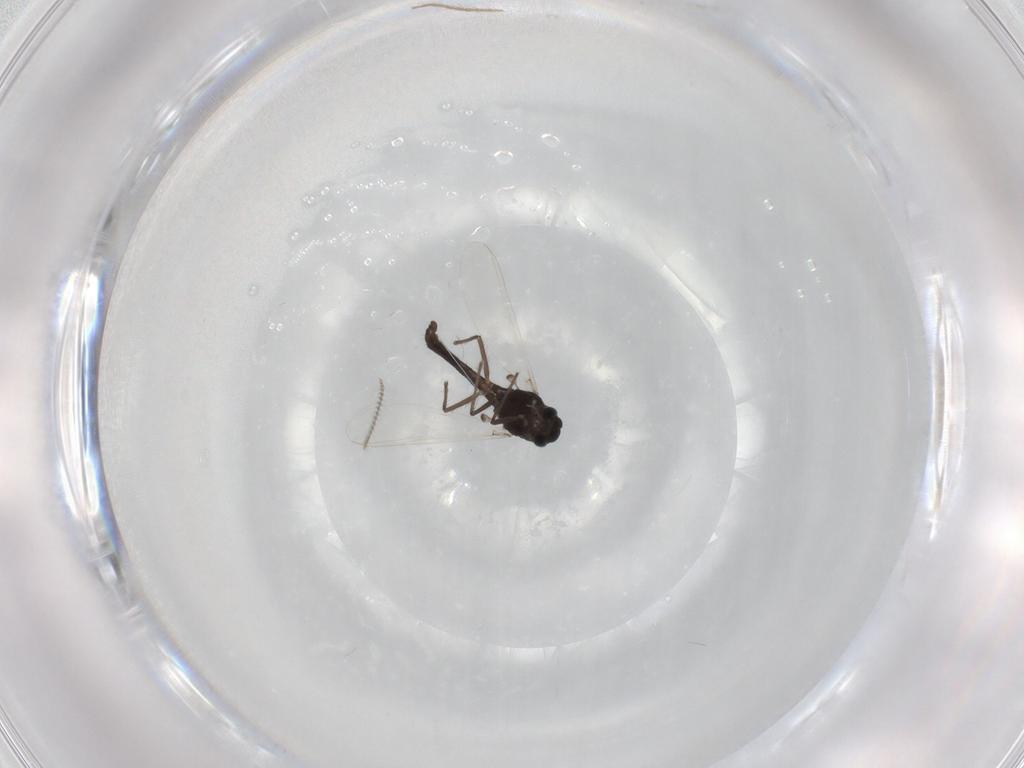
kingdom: Animalia
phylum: Arthropoda
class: Insecta
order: Diptera
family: Chironomidae
